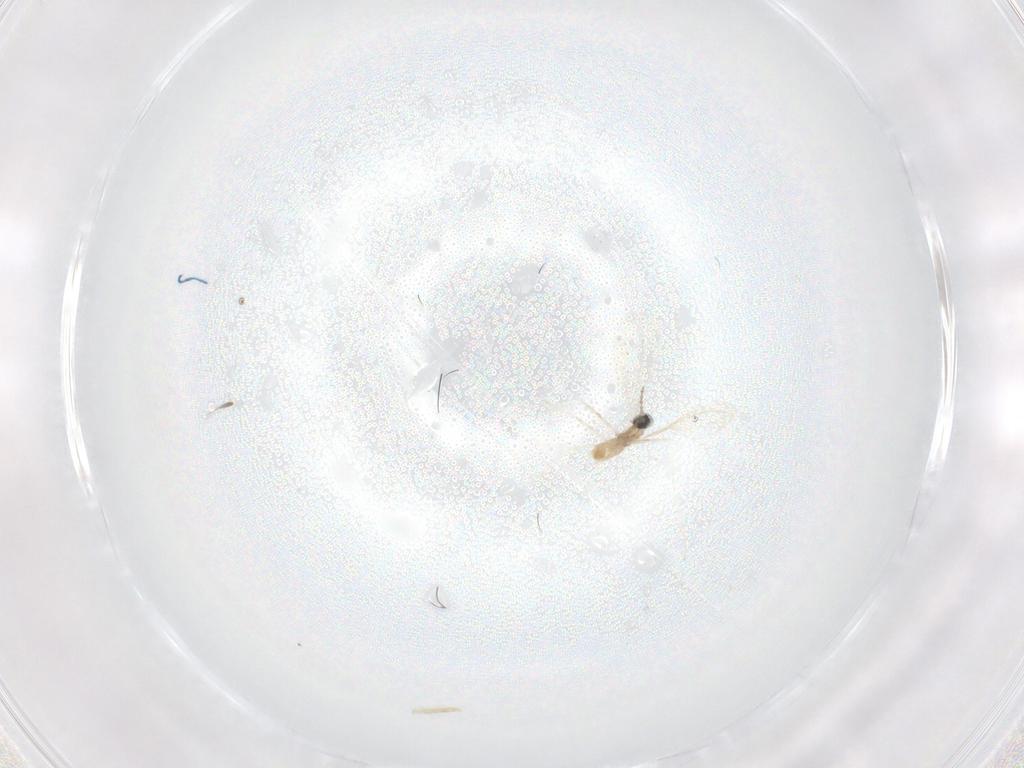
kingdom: Animalia
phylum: Arthropoda
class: Insecta
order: Diptera
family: Cecidomyiidae
